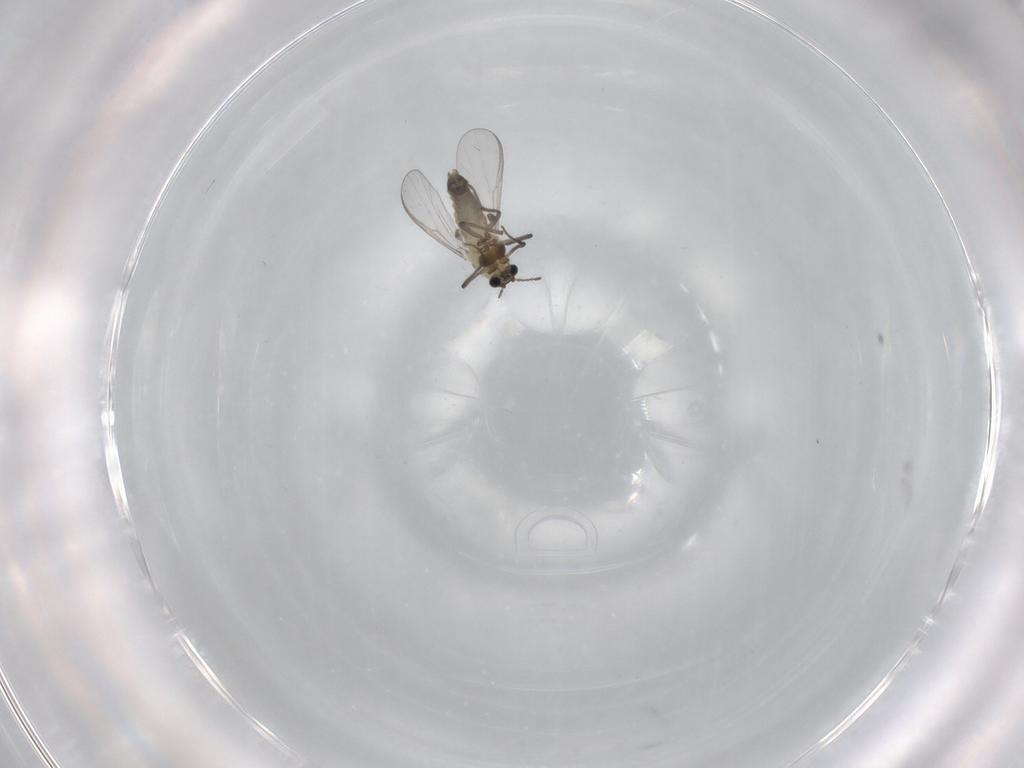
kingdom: Animalia
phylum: Arthropoda
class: Insecta
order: Diptera
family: Chironomidae
